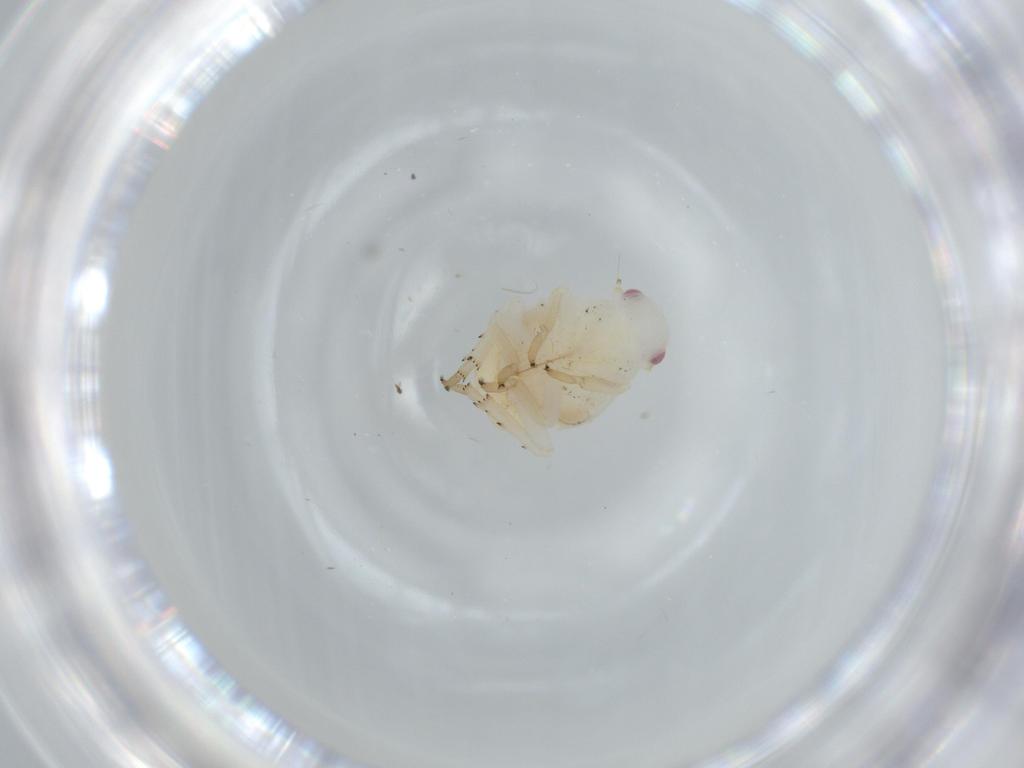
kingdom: Animalia
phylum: Arthropoda
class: Insecta
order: Hemiptera
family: Flatidae
